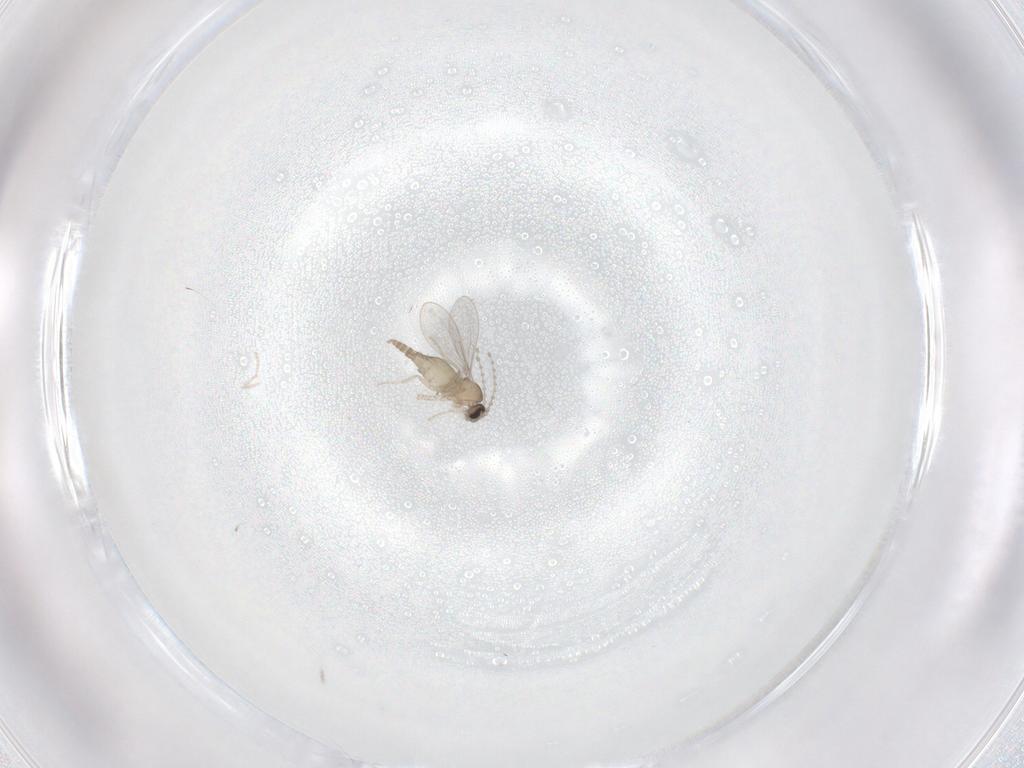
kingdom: Animalia
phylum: Arthropoda
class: Insecta
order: Diptera
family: Cecidomyiidae
